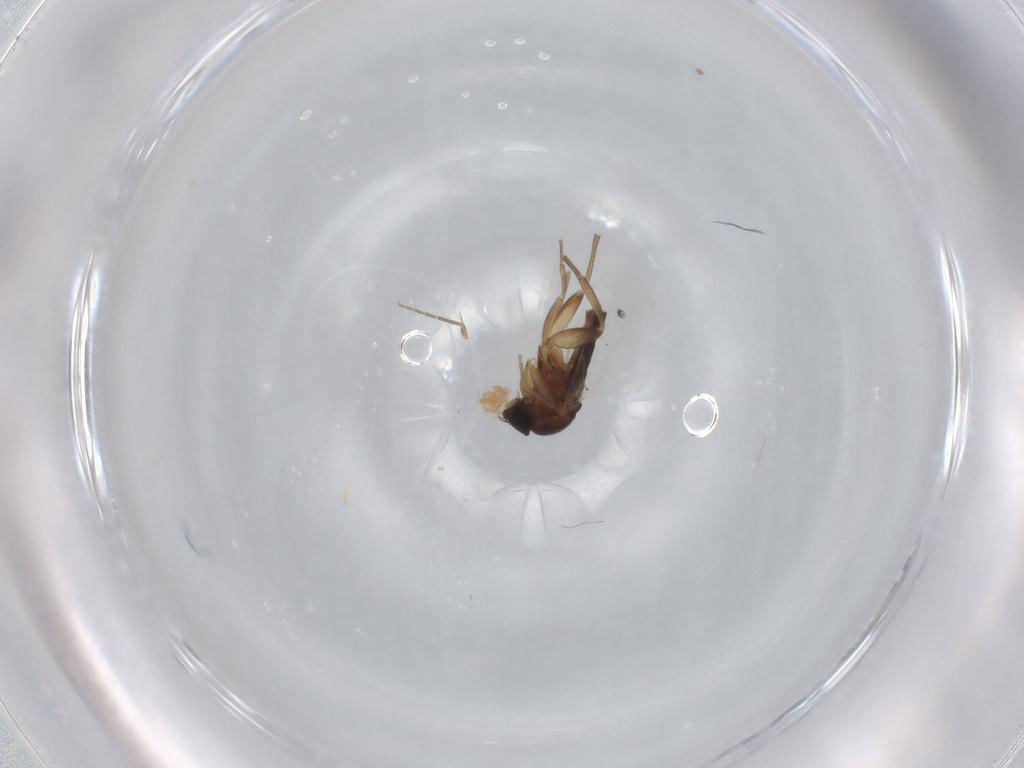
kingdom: Animalia
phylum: Arthropoda
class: Insecta
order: Diptera
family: Phoridae
